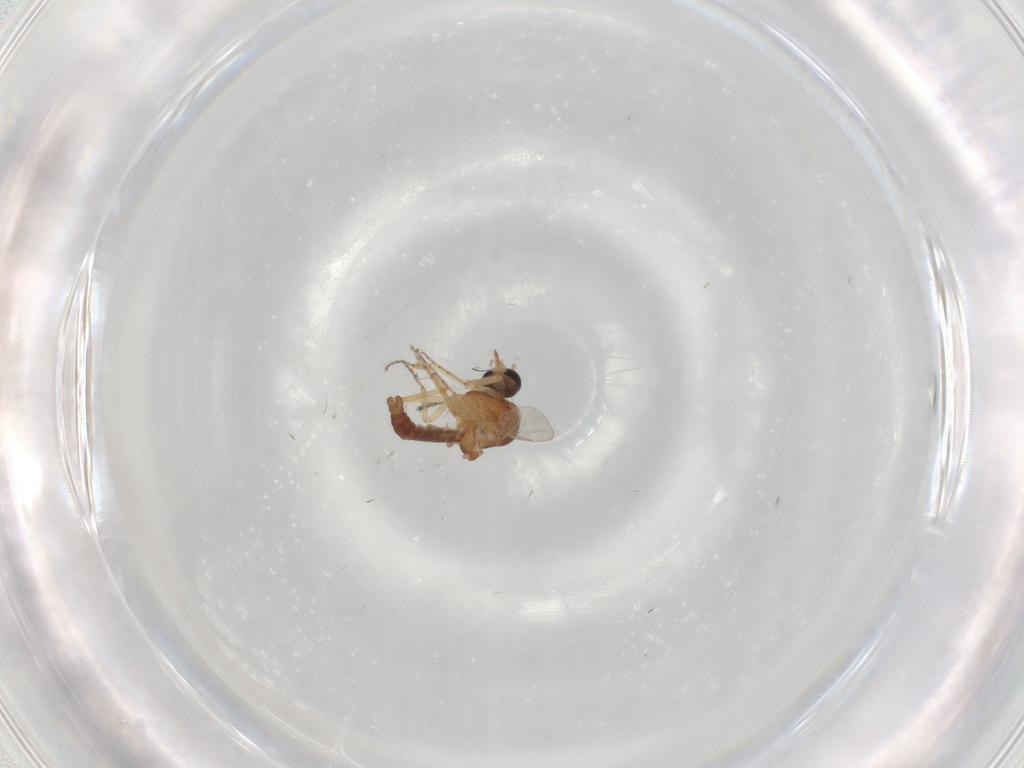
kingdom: Animalia
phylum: Arthropoda
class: Insecta
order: Diptera
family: Ceratopogonidae
